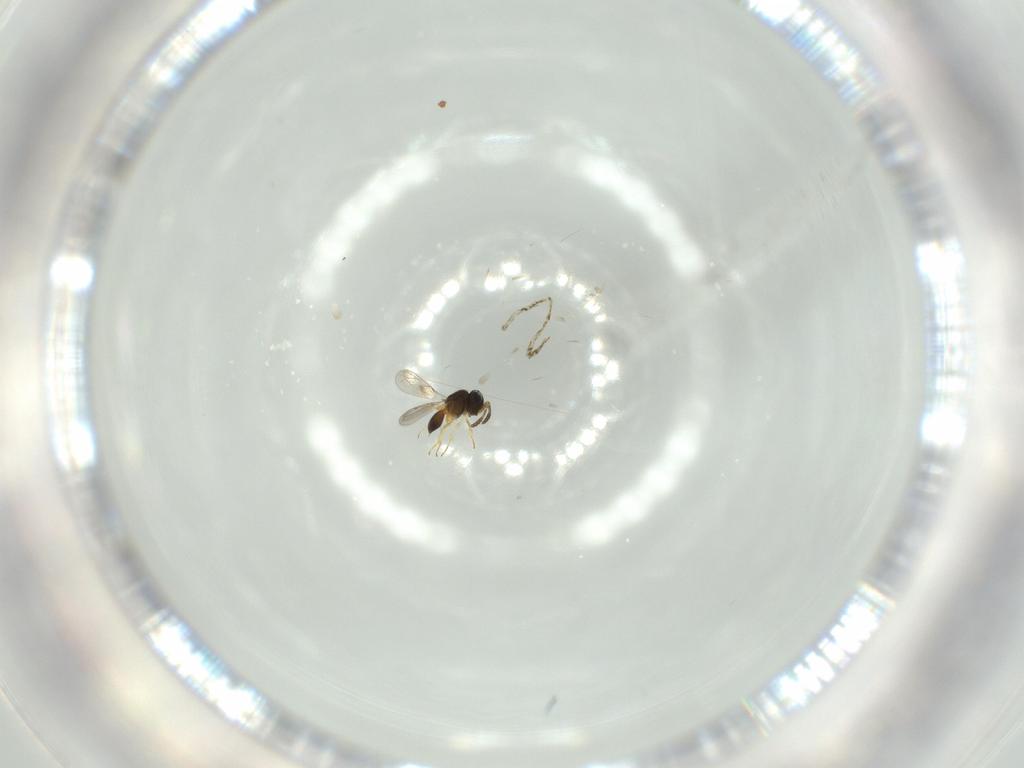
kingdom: Animalia
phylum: Arthropoda
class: Insecta
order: Hymenoptera
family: Scelionidae
